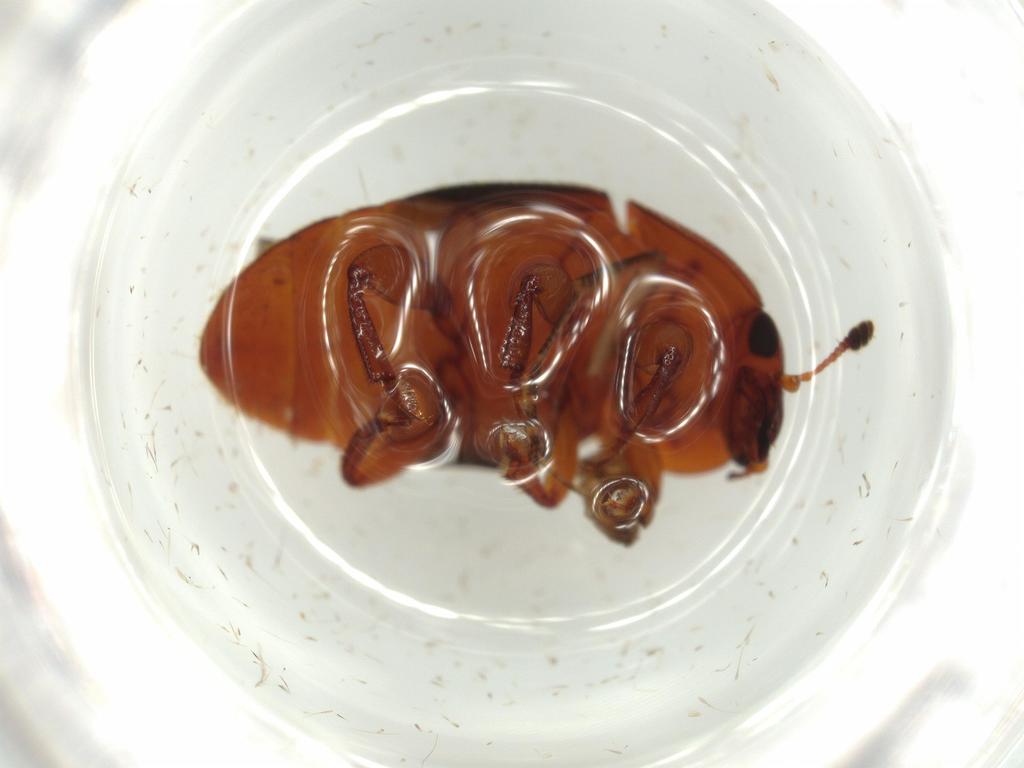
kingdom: Animalia
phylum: Arthropoda
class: Insecta
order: Coleoptera
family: Nitidulidae
